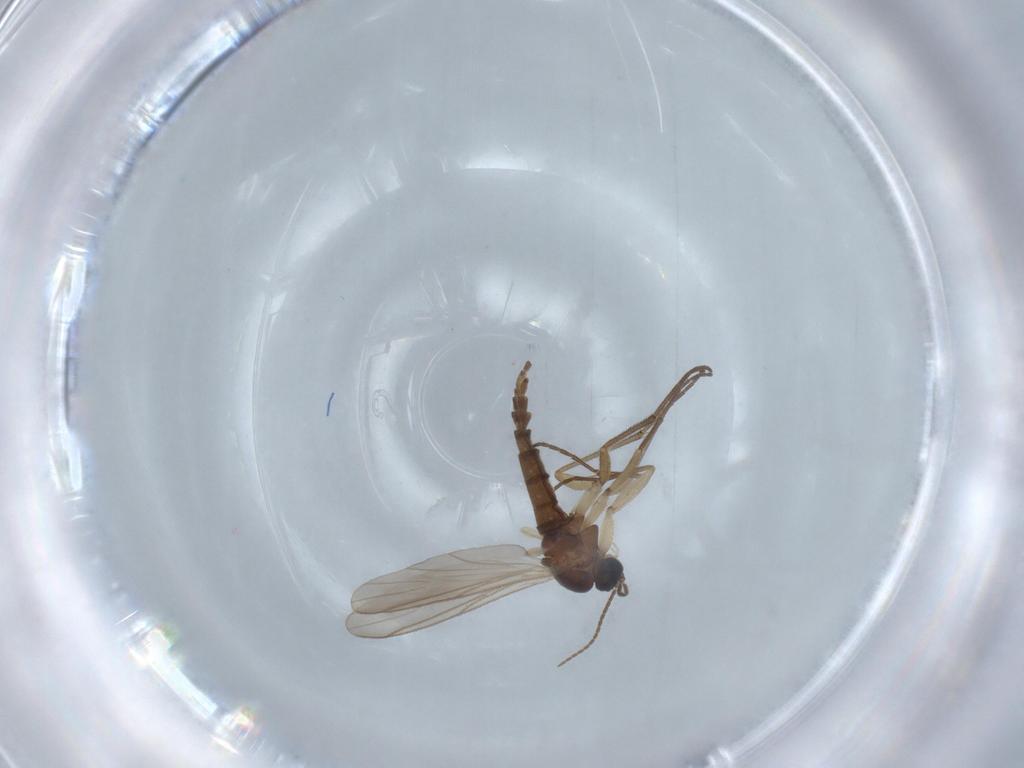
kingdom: Animalia
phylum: Arthropoda
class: Insecta
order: Diptera
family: Sciaridae
